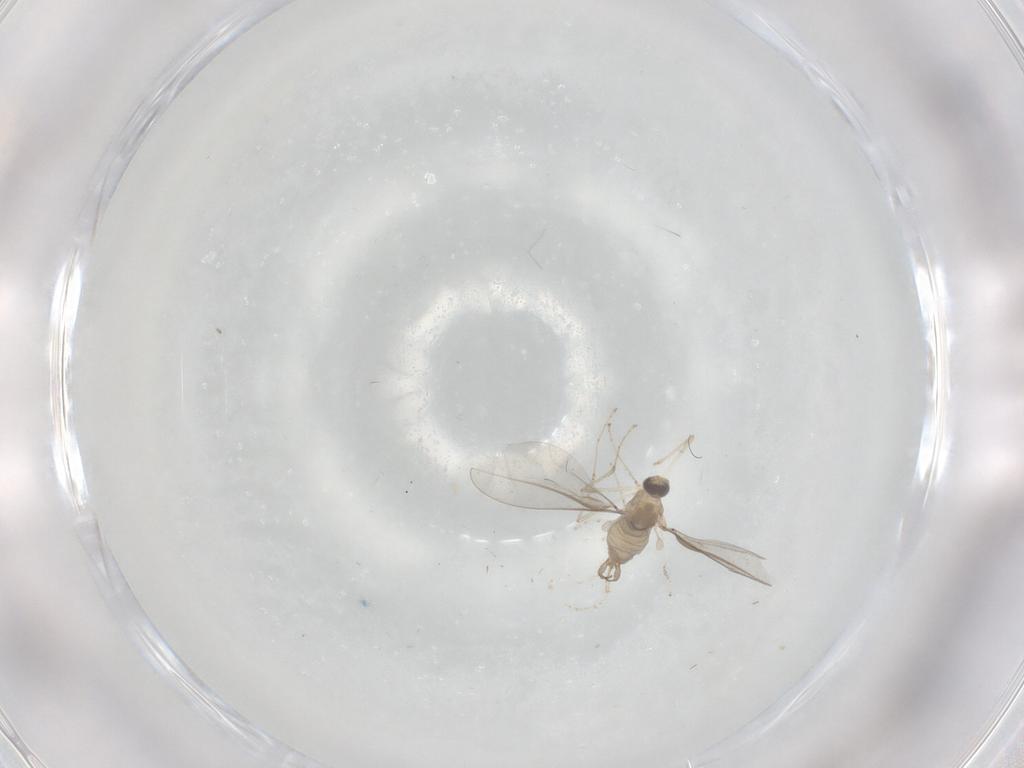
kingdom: Animalia
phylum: Arthropoda
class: Insecta
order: Diptera
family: Cecidomyiidae
